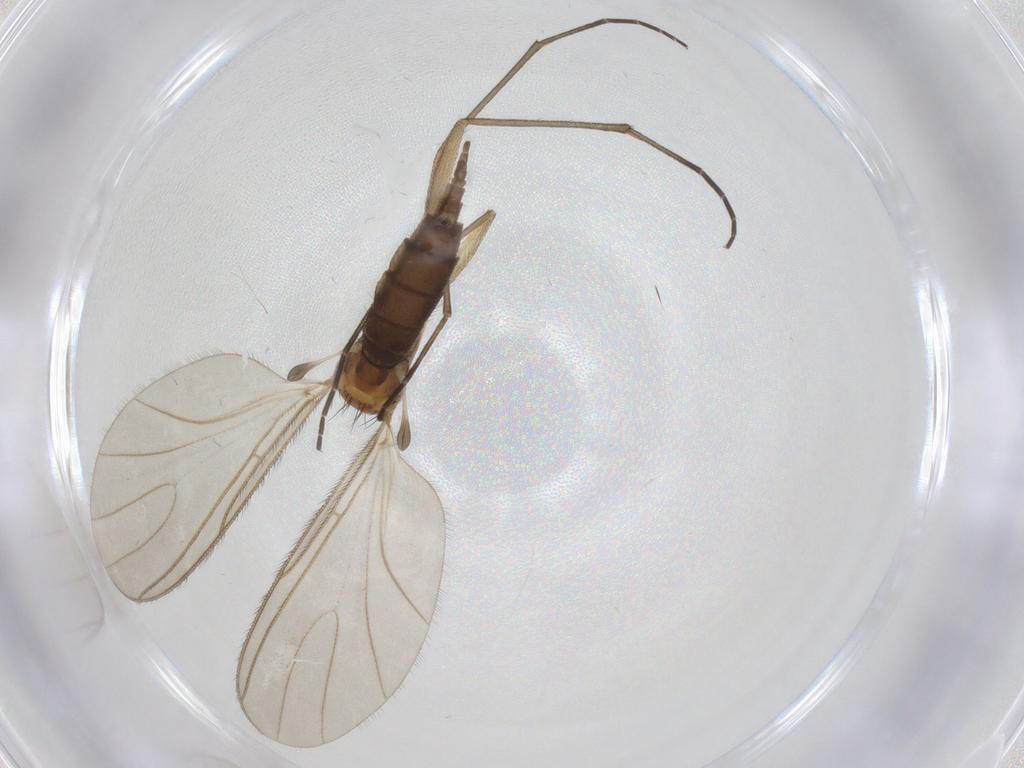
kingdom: Animalia
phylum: Arthropoda
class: Insecta
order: Diptera
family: Sciaridae
